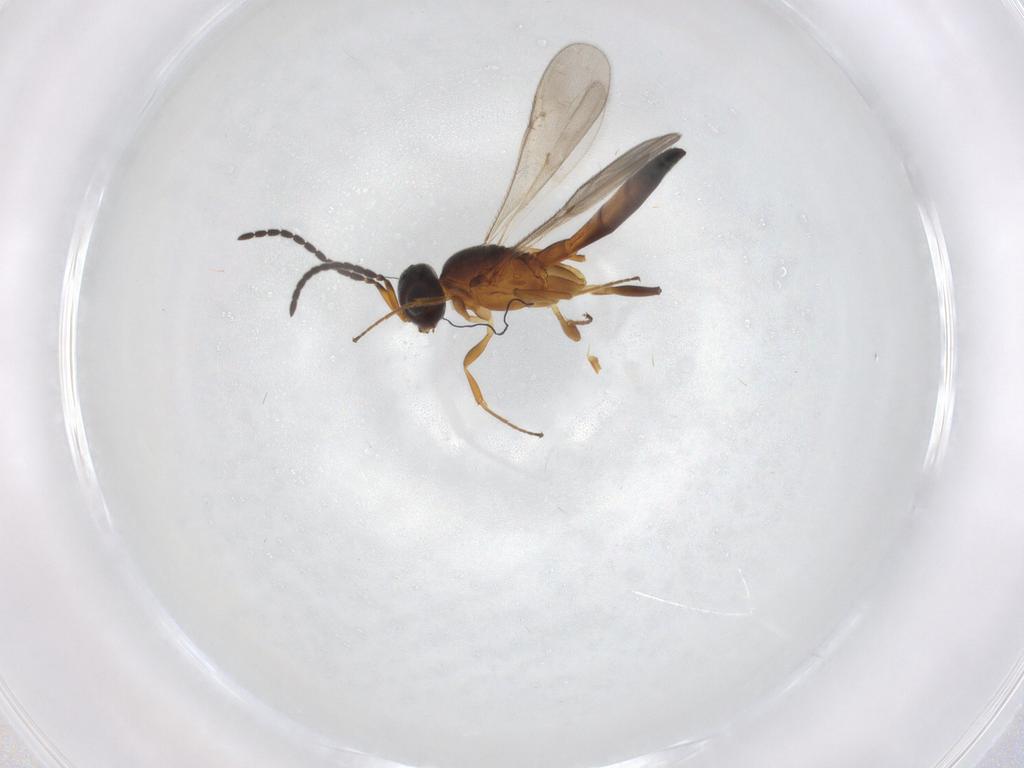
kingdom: Animalia
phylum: Arthropoda
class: Insecta
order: Hymenoptera
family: Scelionidae
